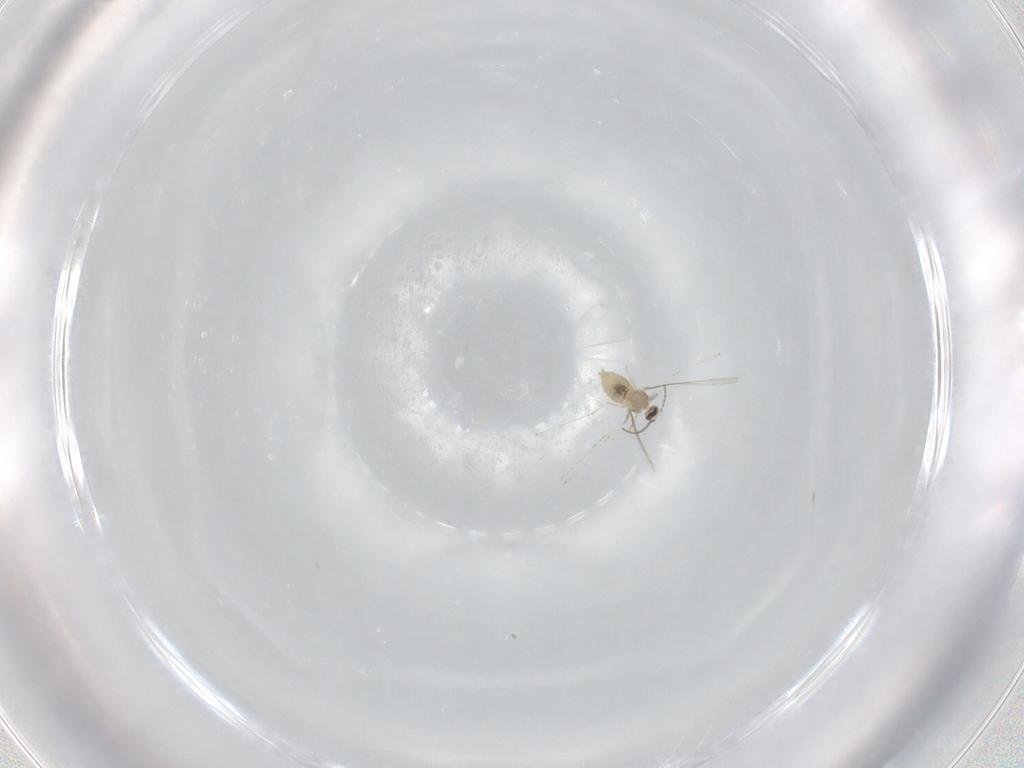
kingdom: Animalia
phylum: Arthropoda
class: Insecta
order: Diptera
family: Cecidomyiidae
